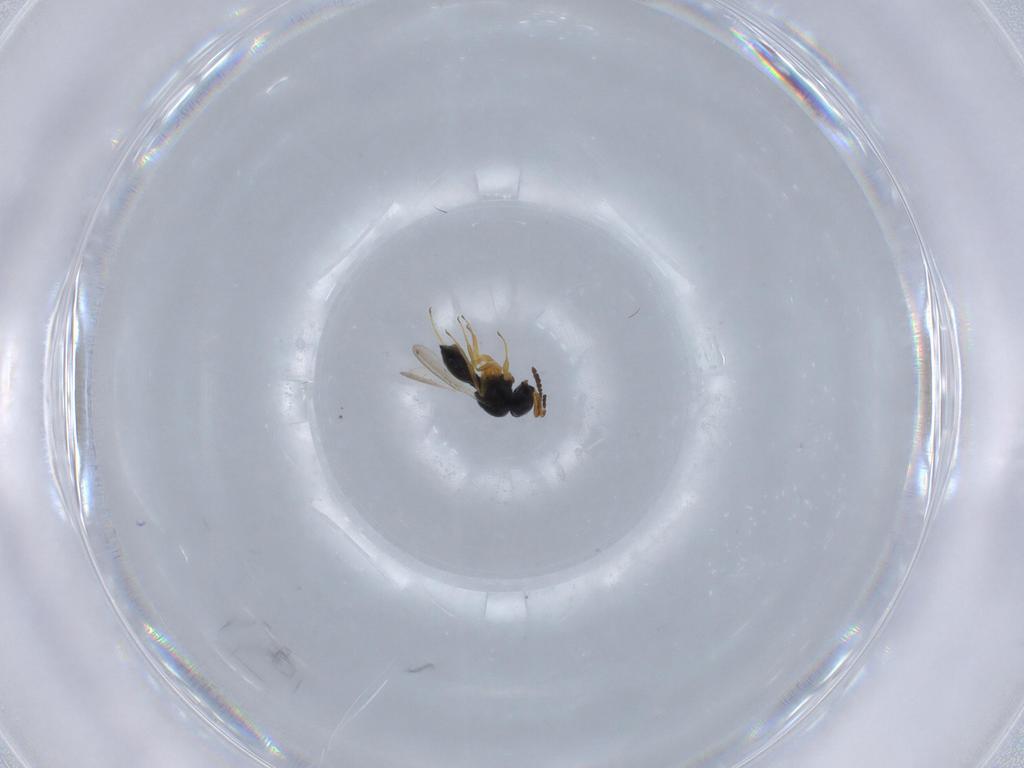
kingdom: Animalia
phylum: Arthropoda
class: Insecta
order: Hymenoptera
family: Scelionidae
